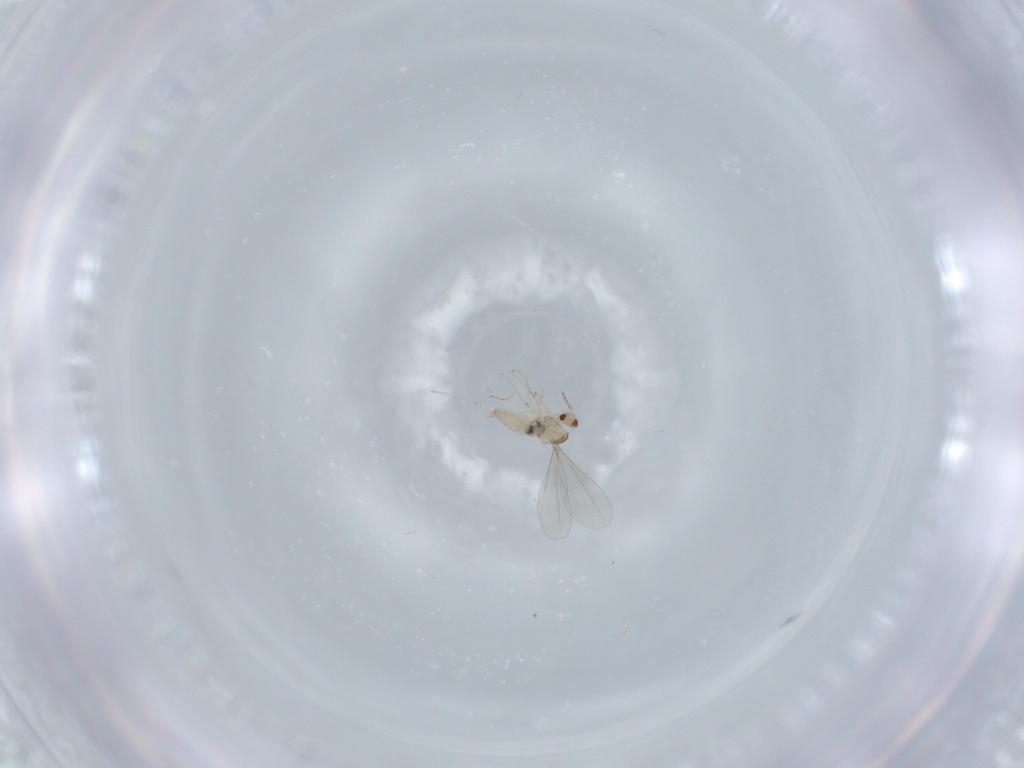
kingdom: Animalia
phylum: Arthropoda
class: Insecta
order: Diptera
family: Cecidomyiidae
